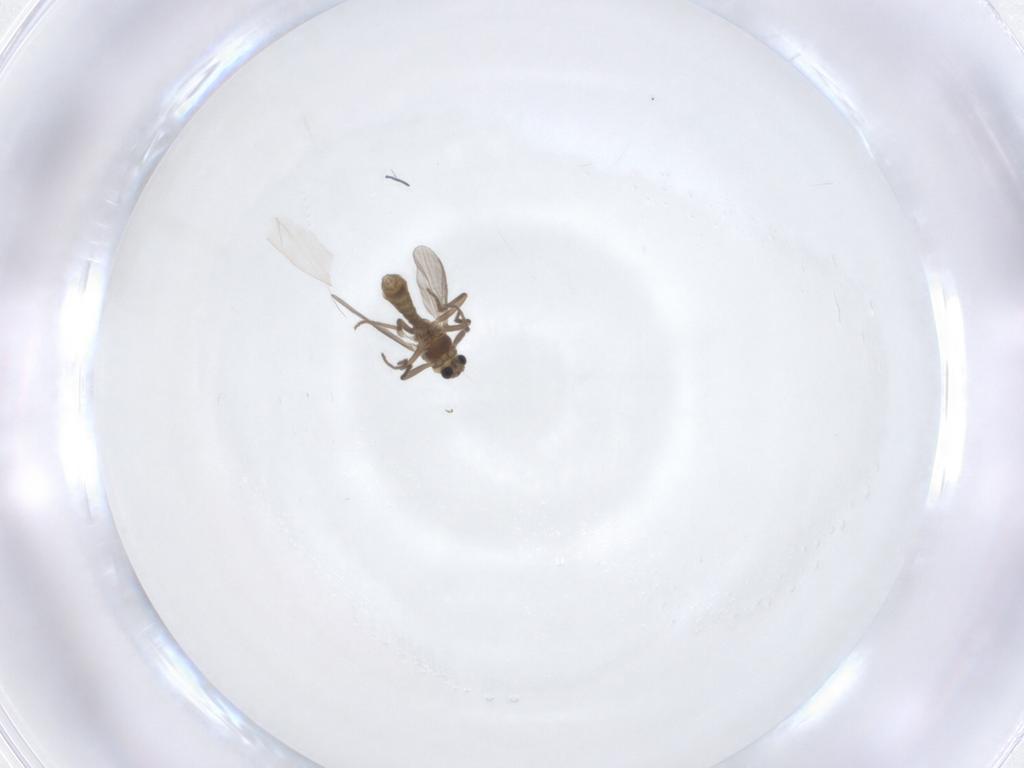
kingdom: Animalia
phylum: Arthropoda
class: Insecta
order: Diptera
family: Chironomidae
